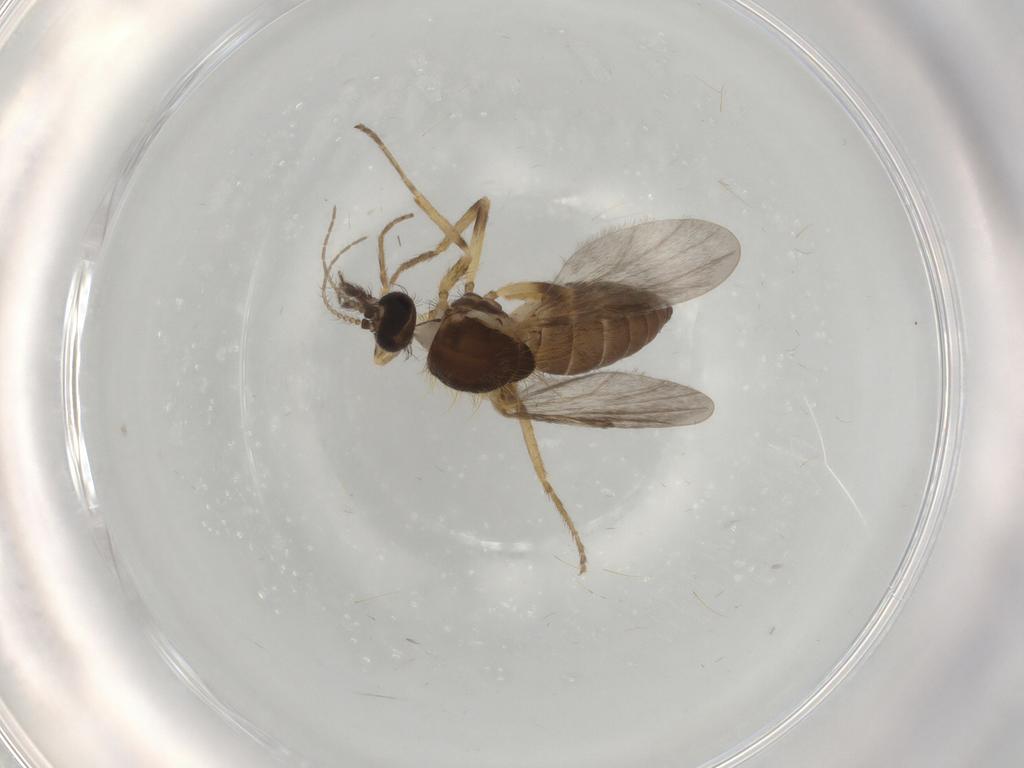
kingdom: Animalia
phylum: Arthropoda
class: Insecta
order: Diptera
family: Ceratopogonidae
